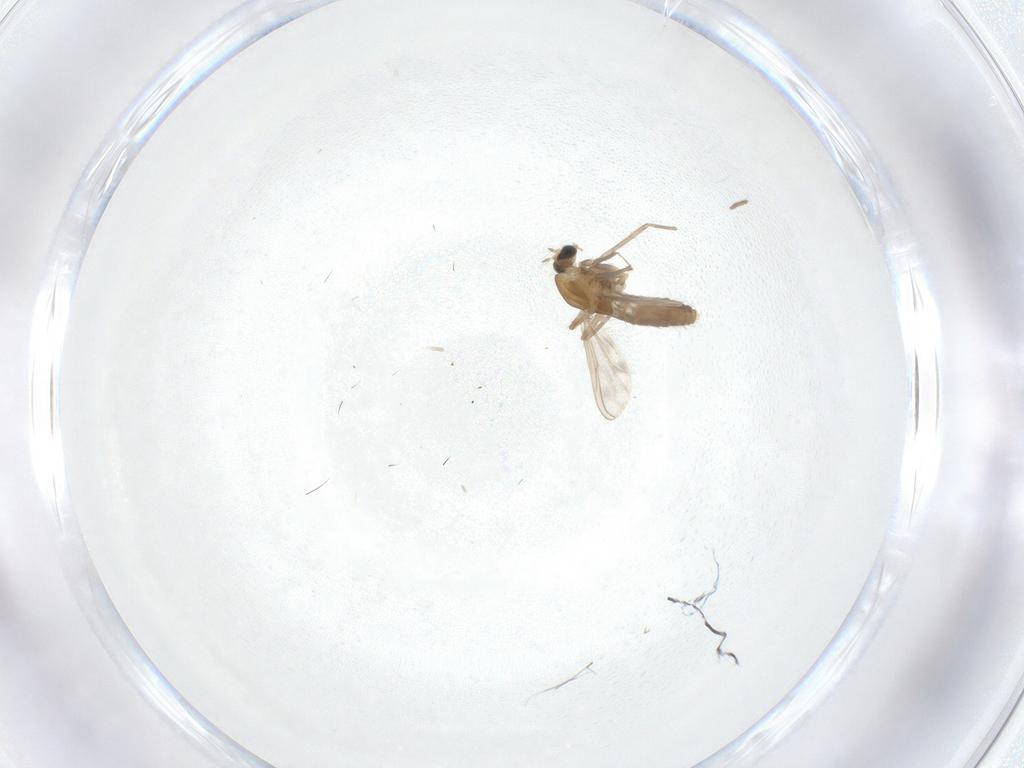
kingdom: Animalia
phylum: Arthropoda
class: Insecta
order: Diptera
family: Chironomidae
